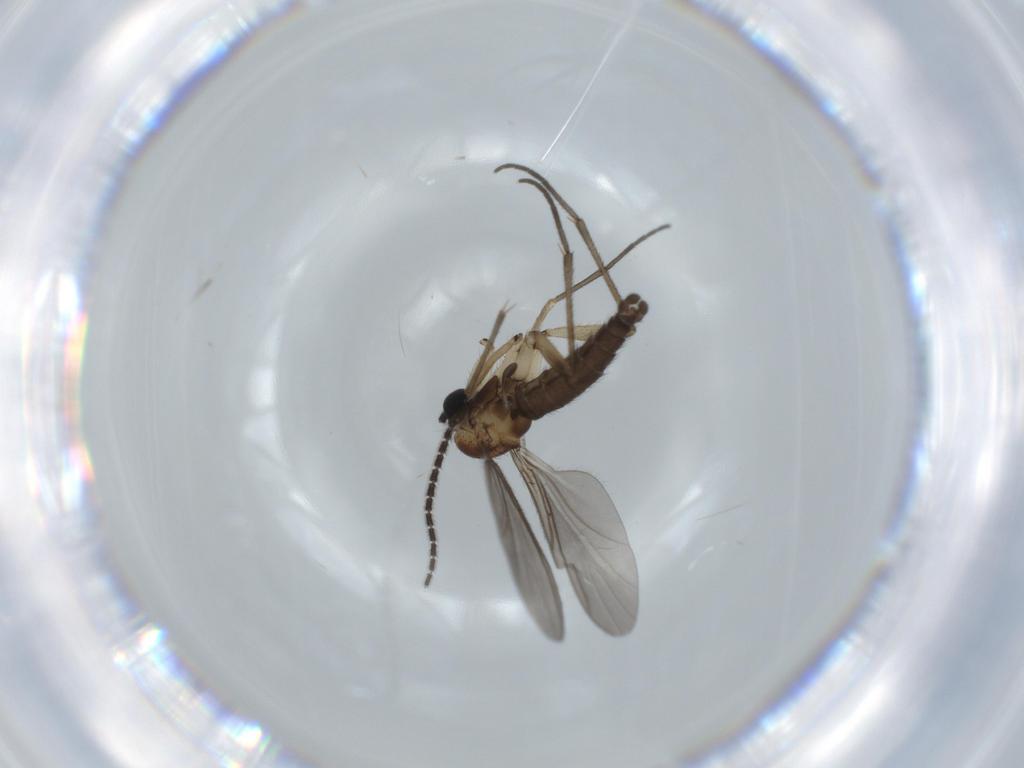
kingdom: Animalia
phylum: Arthropoda
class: Insecta
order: Diptera
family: Sciaridae
